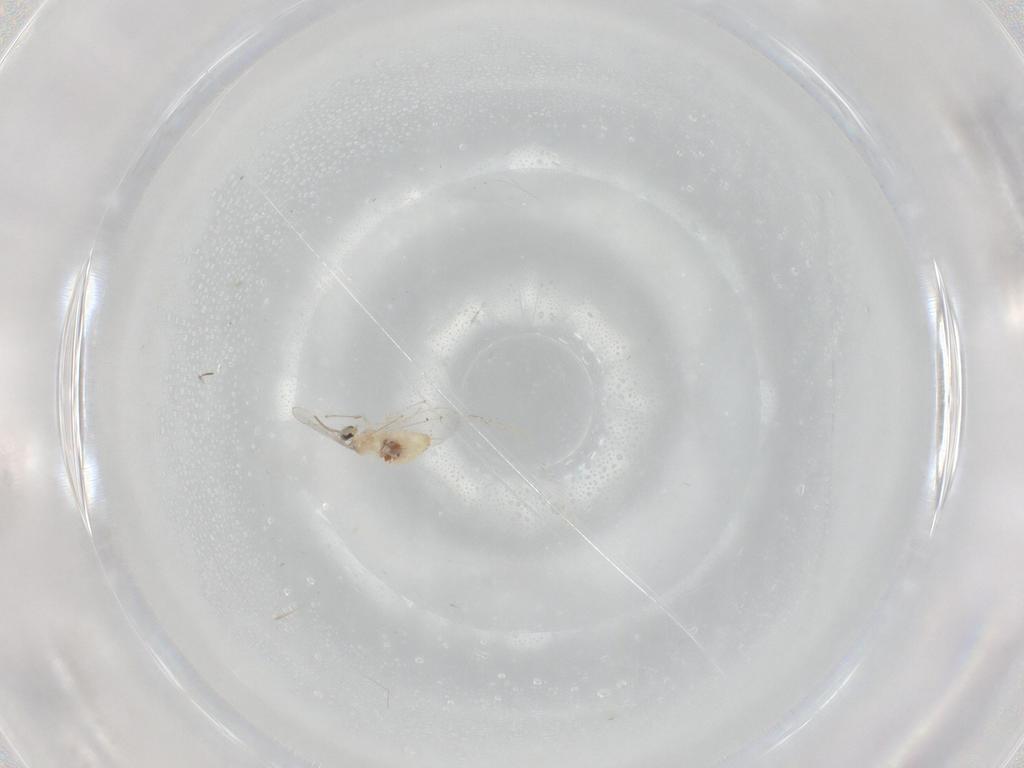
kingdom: Animalia
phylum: Arthropoda
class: Insecta
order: Diptera
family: Cecidomyiidae
